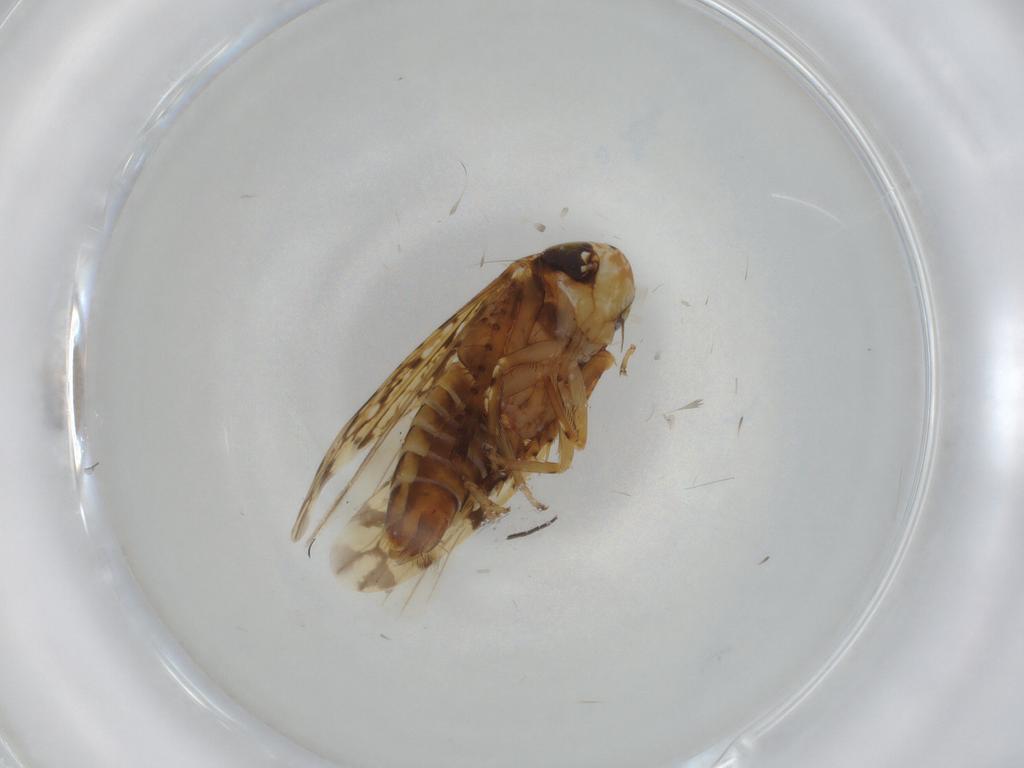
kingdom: Animalia
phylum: Arthropoda
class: Insecta
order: Hemiptera
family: Cicadellidae
